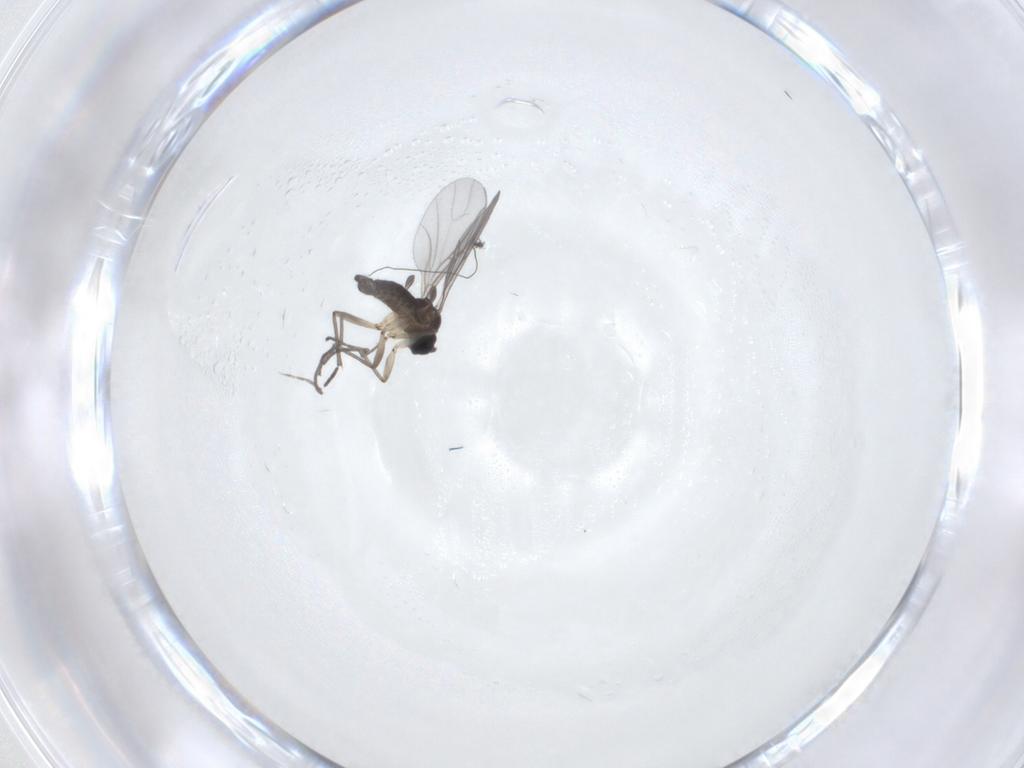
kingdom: Animalia
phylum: Arthropoda
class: Insecta
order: Diptera
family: Sciaridae
